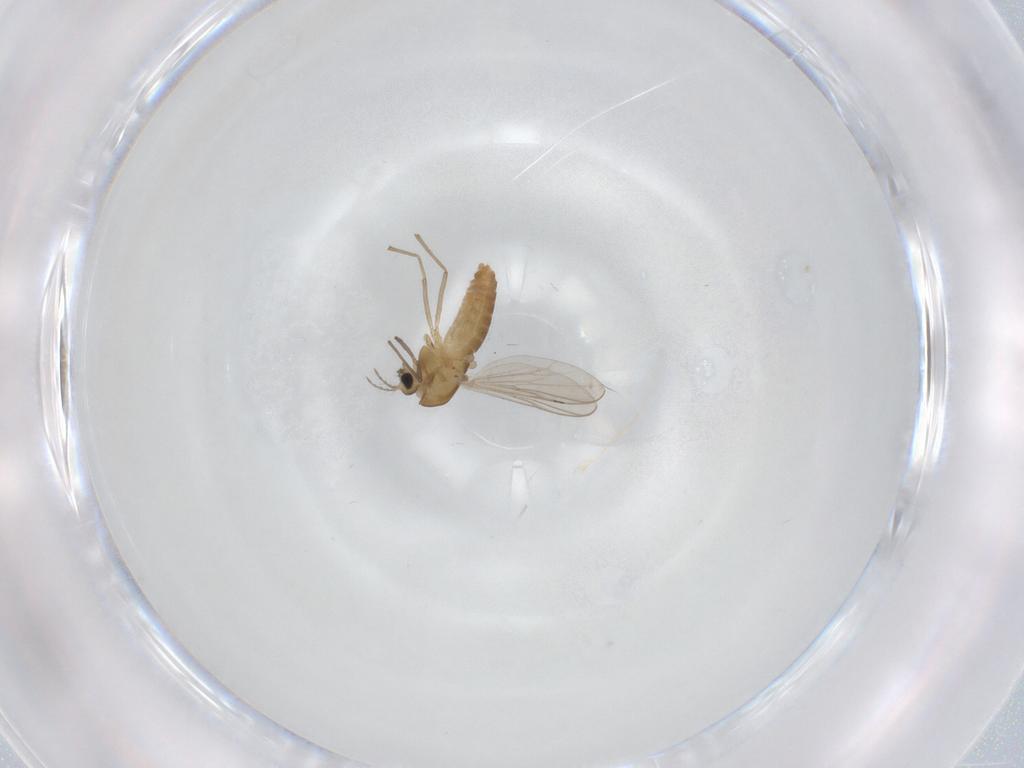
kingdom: Animalia
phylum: Arthropoda
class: Insecta
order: Diptera
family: Chironomidae
